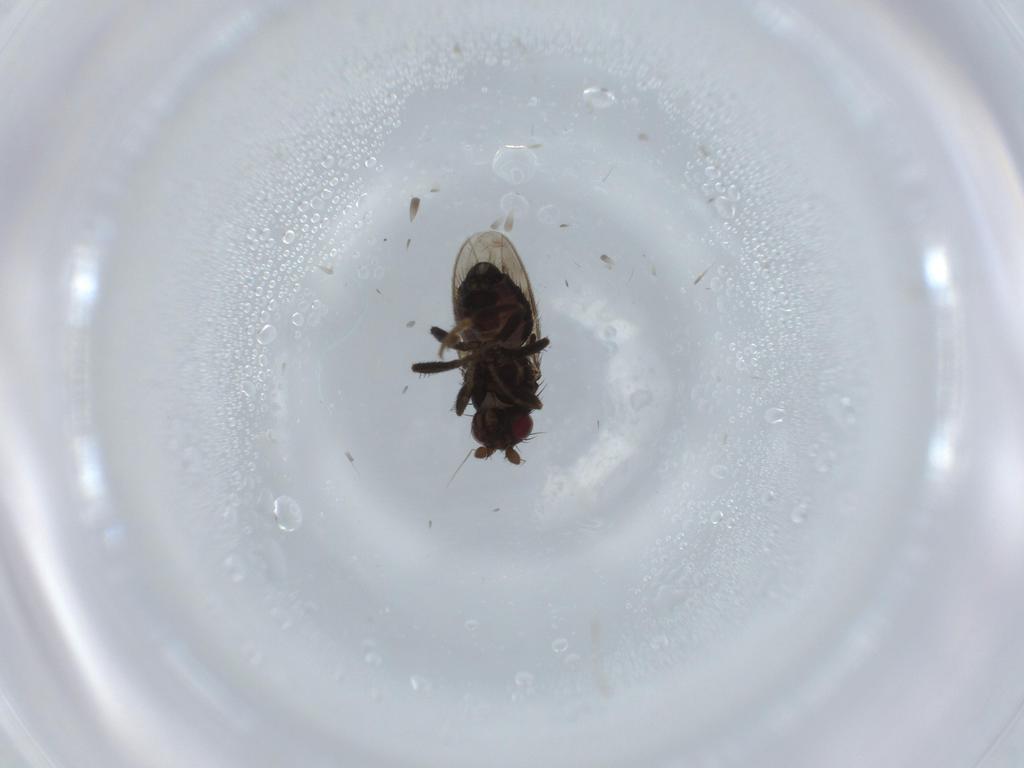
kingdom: Animalia
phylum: Arthropoda
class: Insecta
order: Diptera
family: Sphaeroceridae
